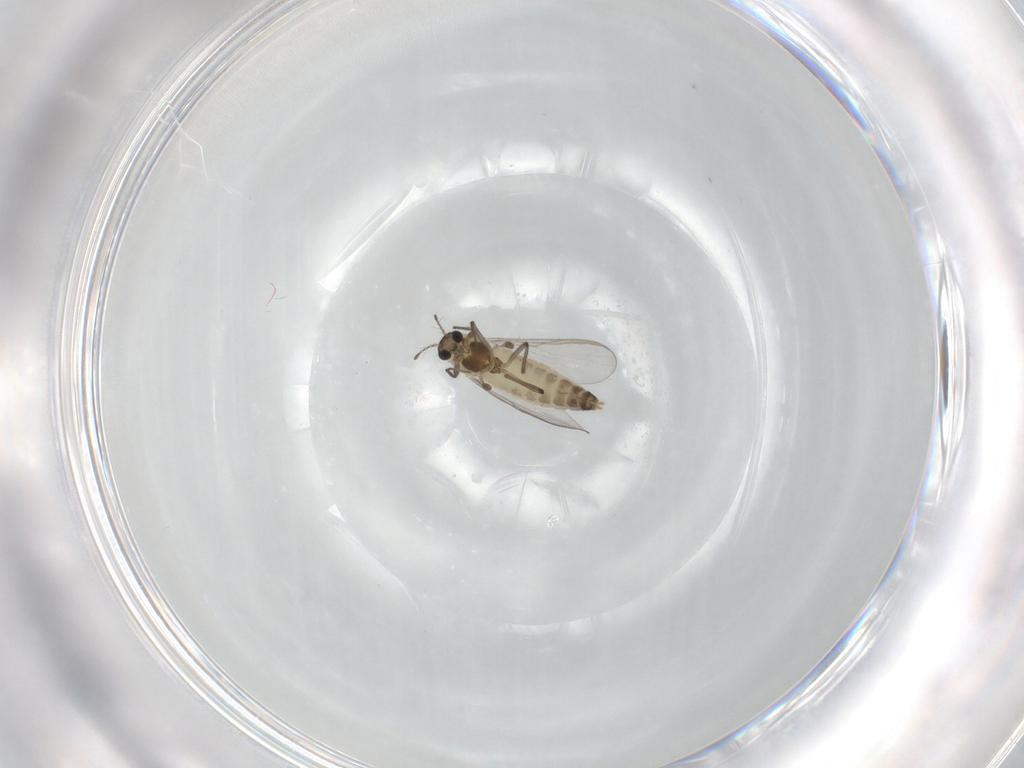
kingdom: Animalia
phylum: Arthropoda
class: Insecta
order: Diptera
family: Chironomidae
